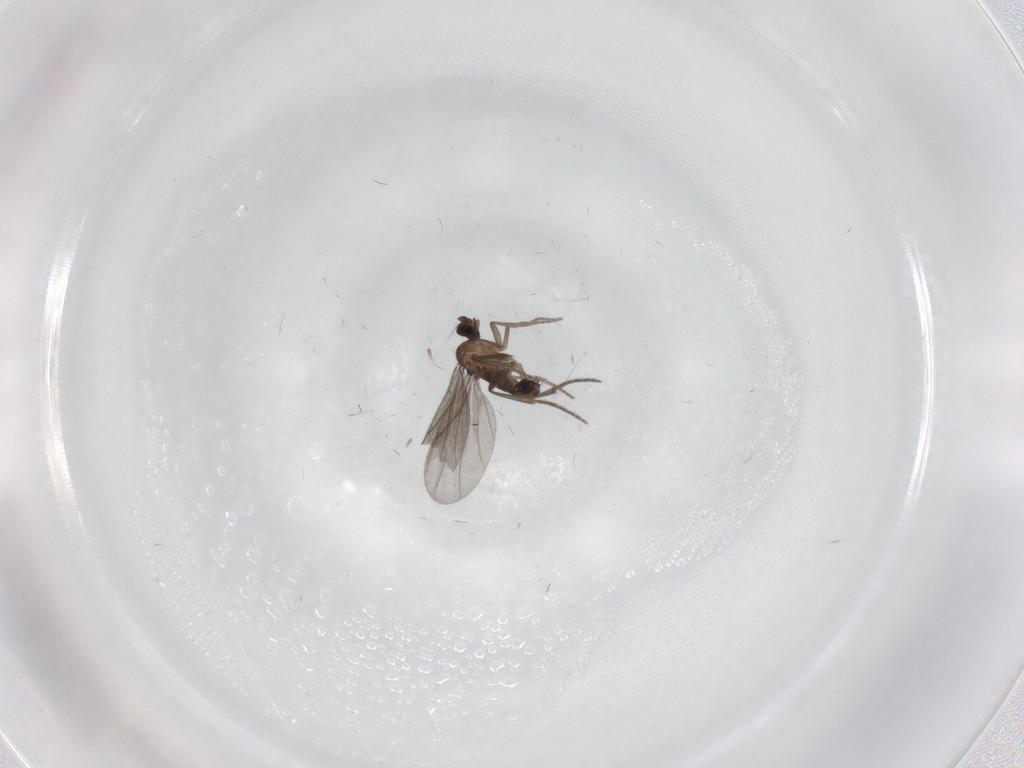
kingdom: Animalia
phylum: Arthropoda
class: Insecta
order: Diptera
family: Phoridae
